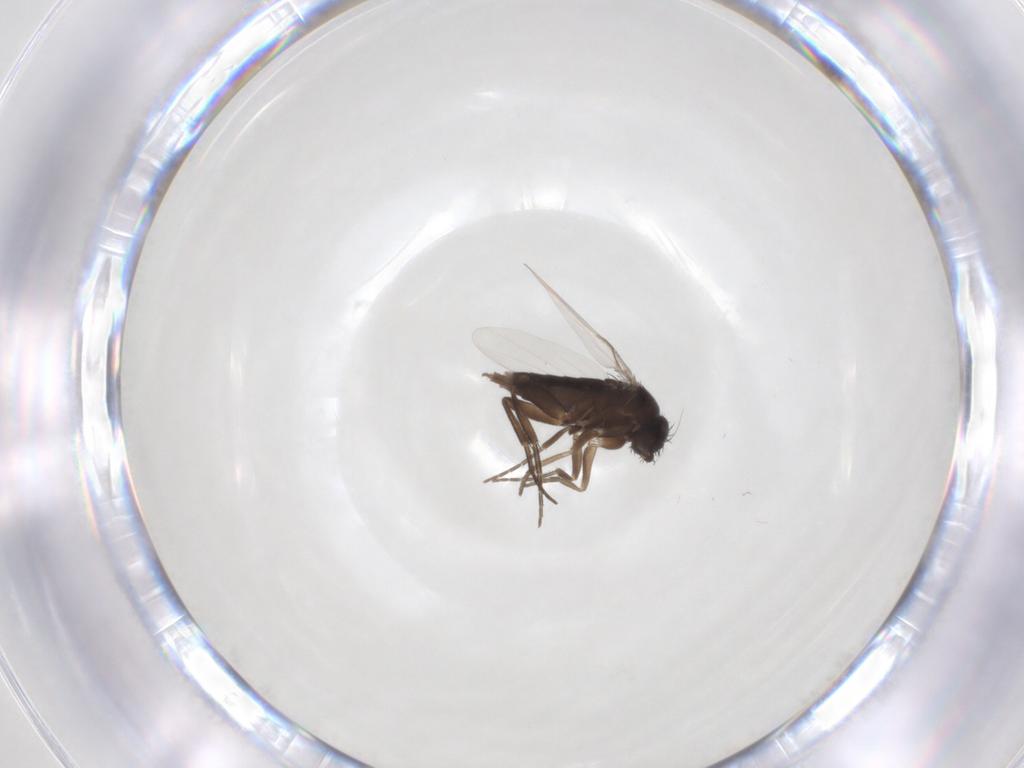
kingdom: Animalia
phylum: Arthropoda
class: Insecta
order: Diptera
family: Phoridae
